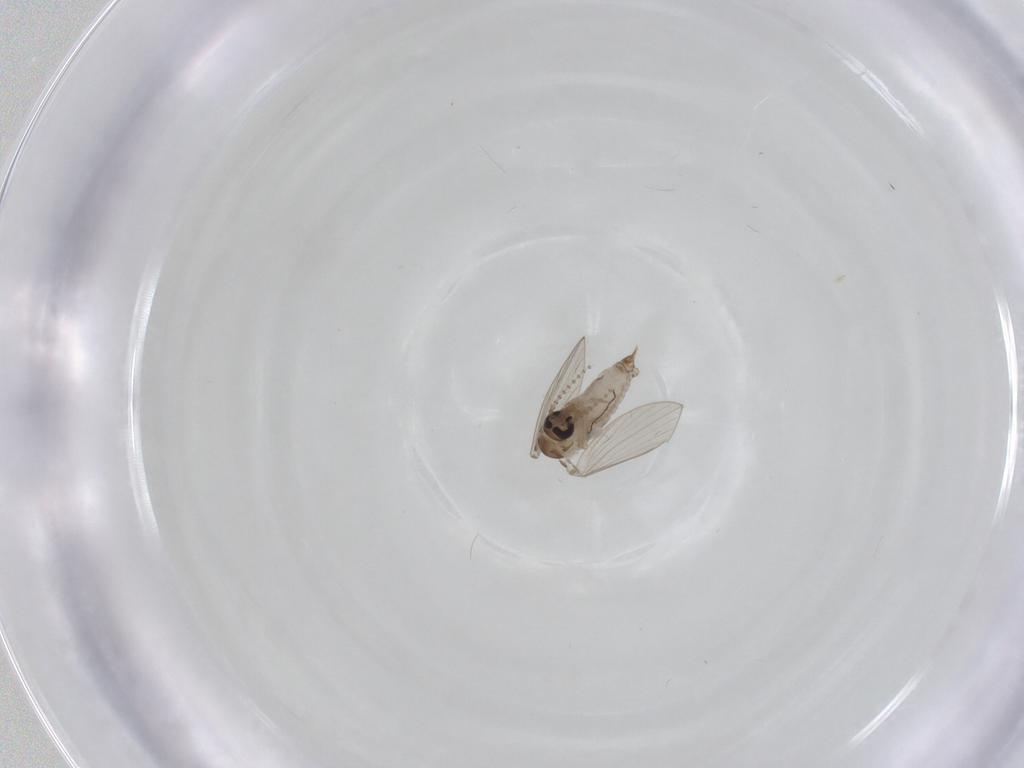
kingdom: Animalia
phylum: Arthropoda
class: Insecta
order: Diptera
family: Psychodidae
